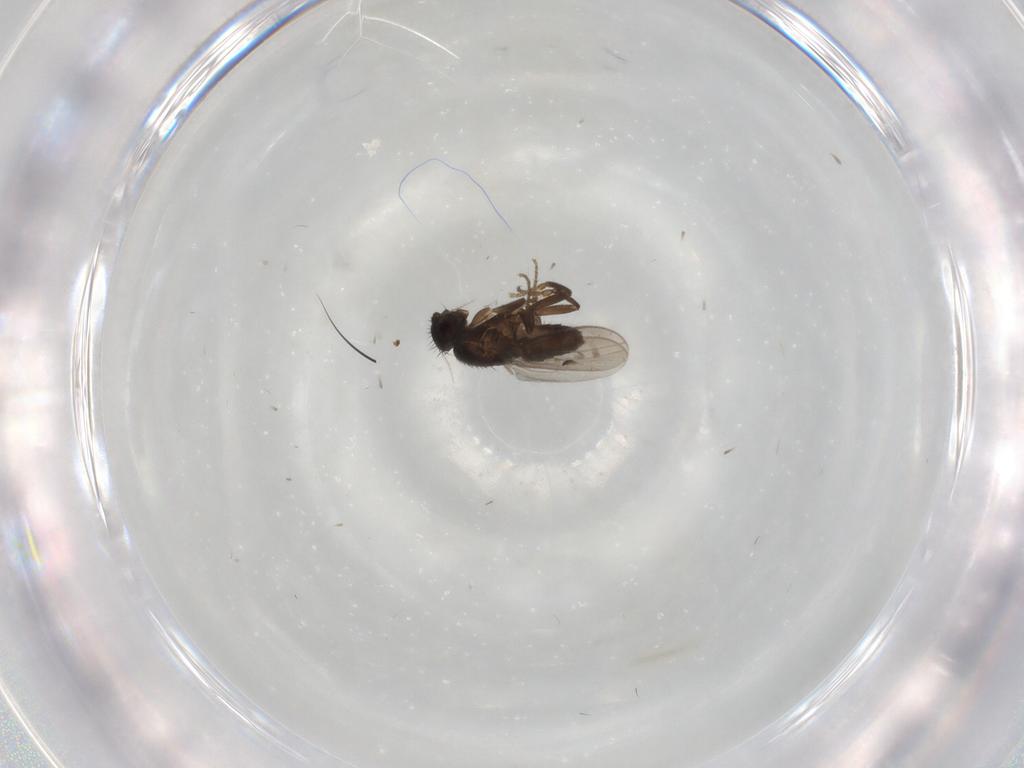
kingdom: Animalia
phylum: Arthropoda
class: Insecta
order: Diptera
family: Sphaeroceridae
